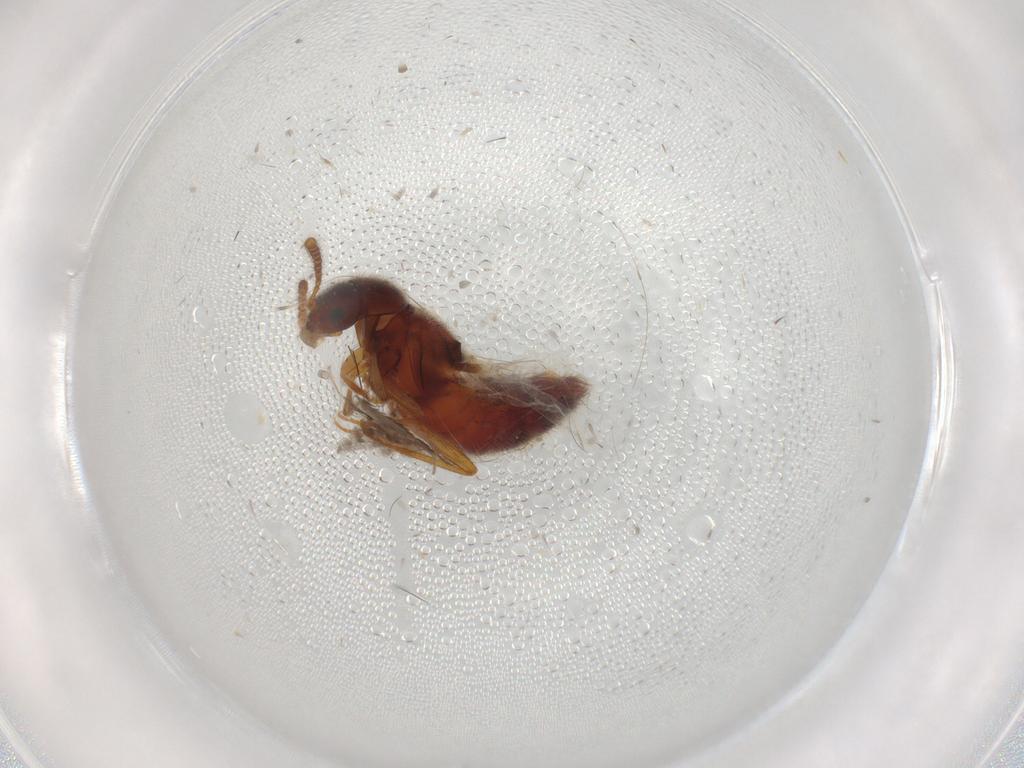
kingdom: Animalia
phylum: Arthropoda
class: Insecta
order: Coleoptera
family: Staphylinidae
